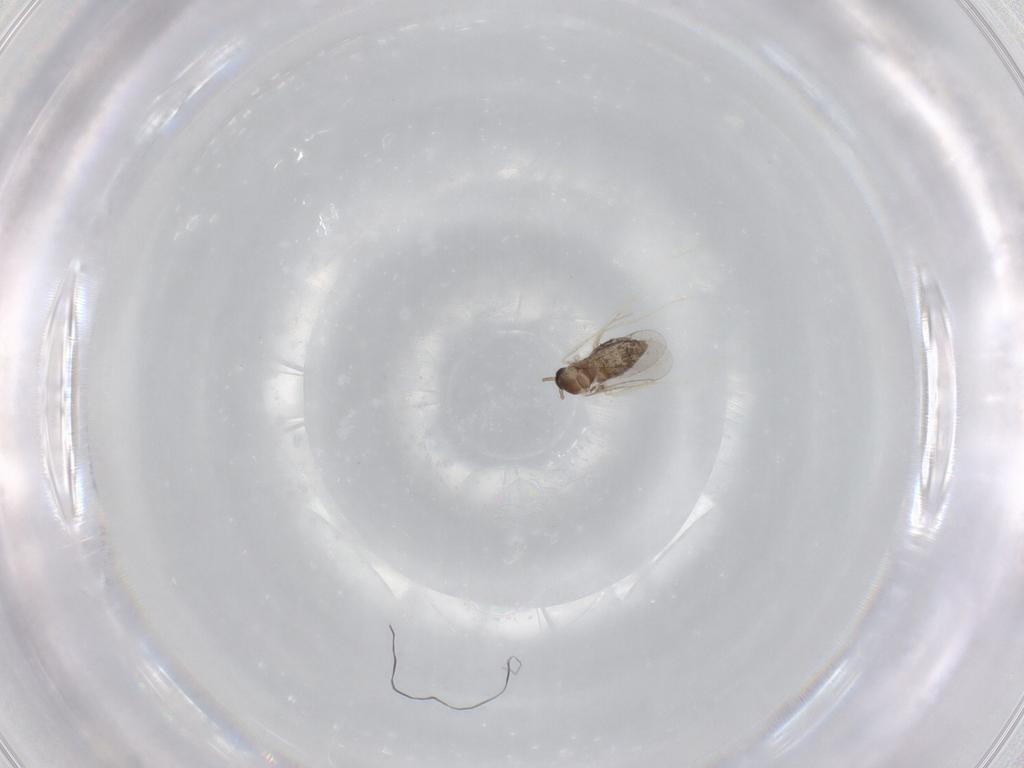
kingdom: Animalia
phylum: Arthropoda
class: Insecta
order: Diptera
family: Cecidomyiidae
